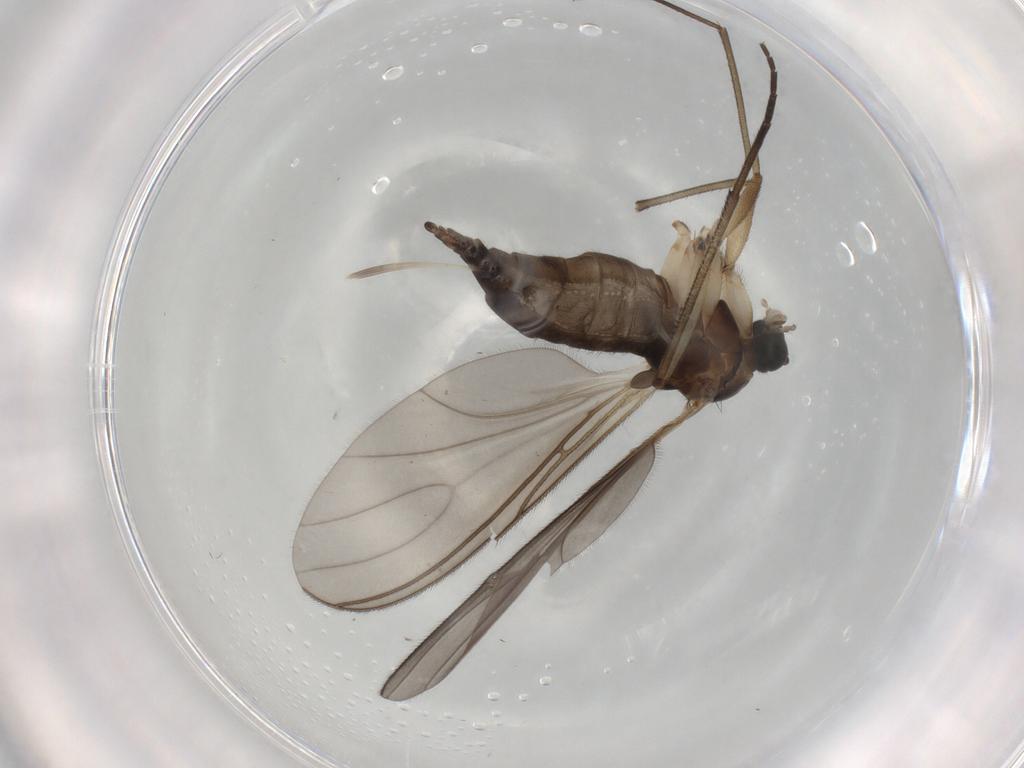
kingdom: Animalia
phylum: Arthropoda
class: Insecta
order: Diptera
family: Sciaridae
